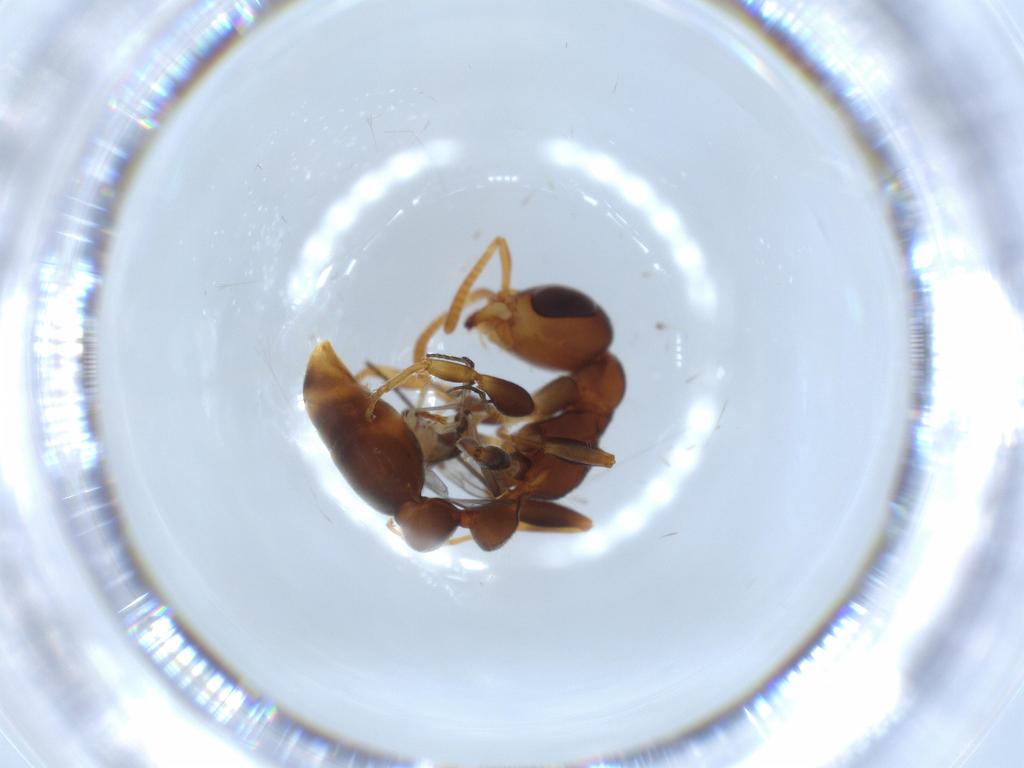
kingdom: Animalia
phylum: Arthropoda
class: Insecta
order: Diptera
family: Sciaridae
